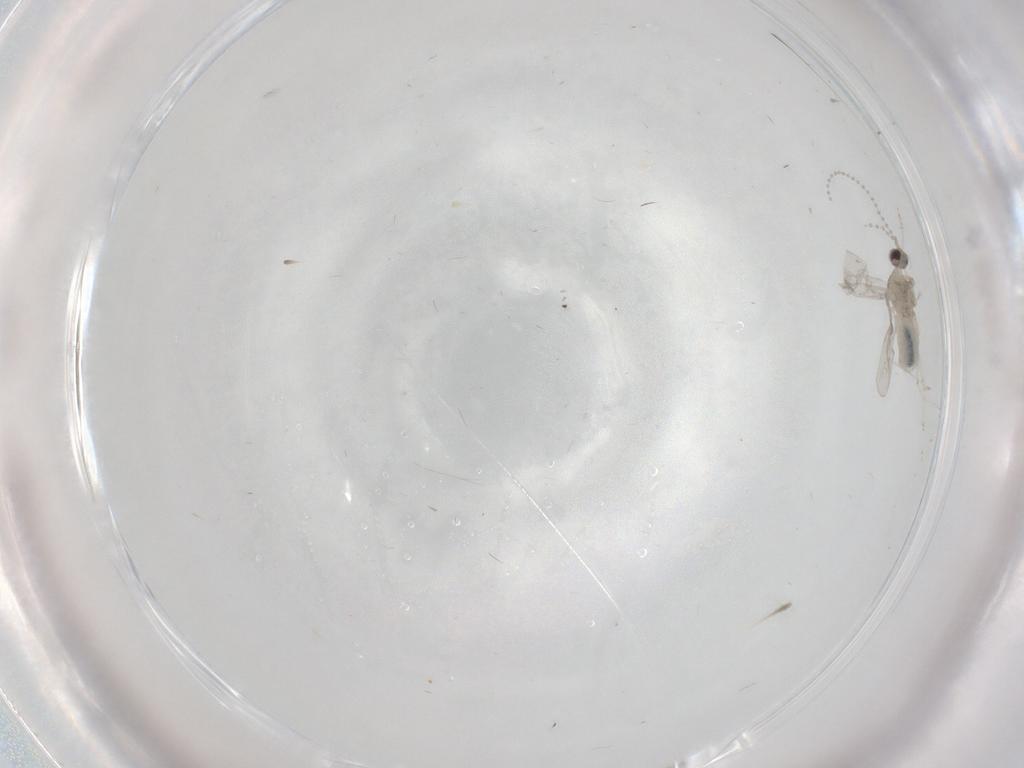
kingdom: Animalia
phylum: Arthropoda
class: Insecta
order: Diptera
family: Cecidomyiidae
